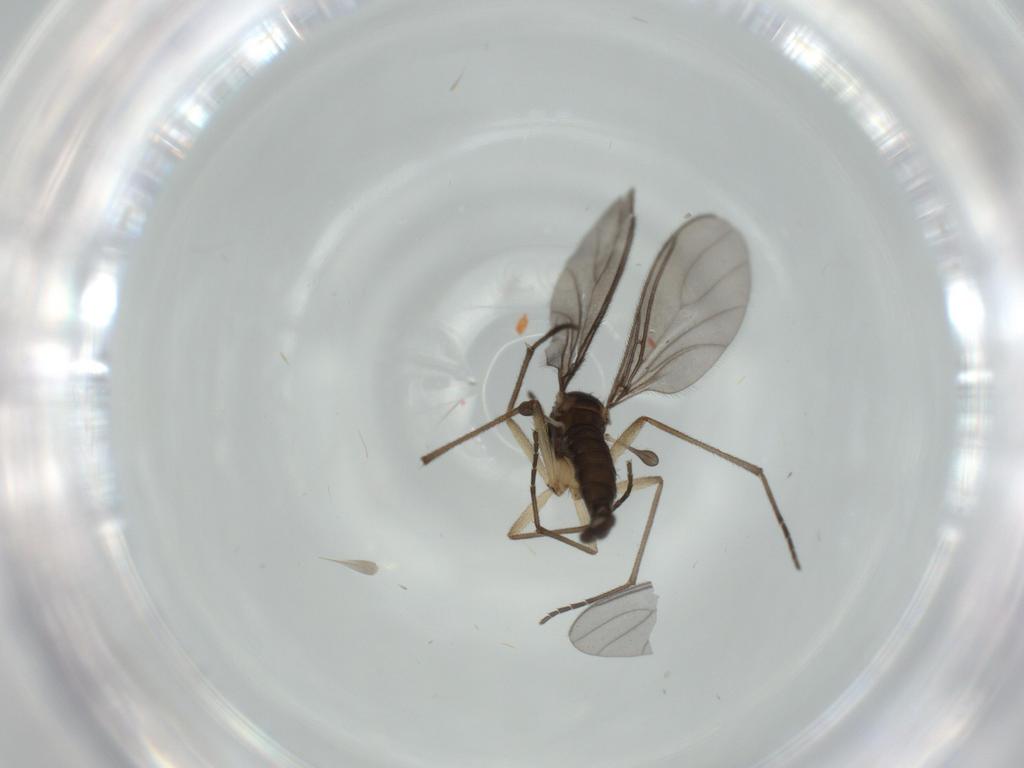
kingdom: Animalia
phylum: Arthropoda
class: Insecta
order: Diptera
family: Sciaridae
